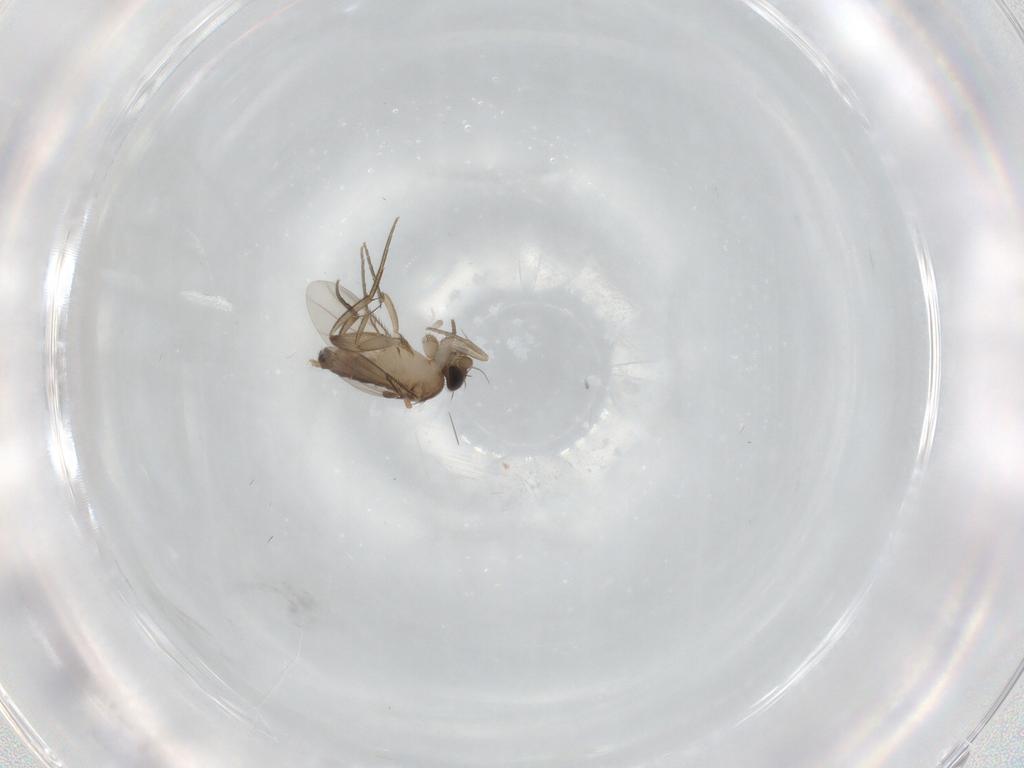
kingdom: Animalia
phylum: Arthropoda
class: Insecta
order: Diptera
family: Phoridae
